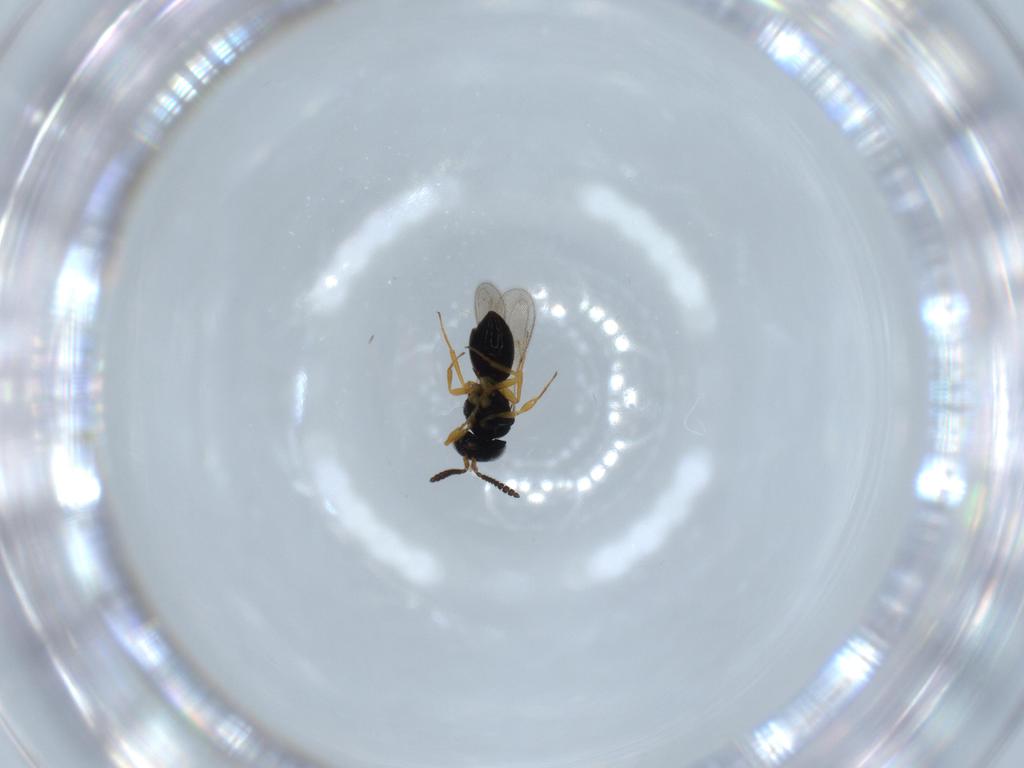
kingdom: Animalia
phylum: Arthropoda
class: Insecta
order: Hymenoptera
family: Scelionidae
